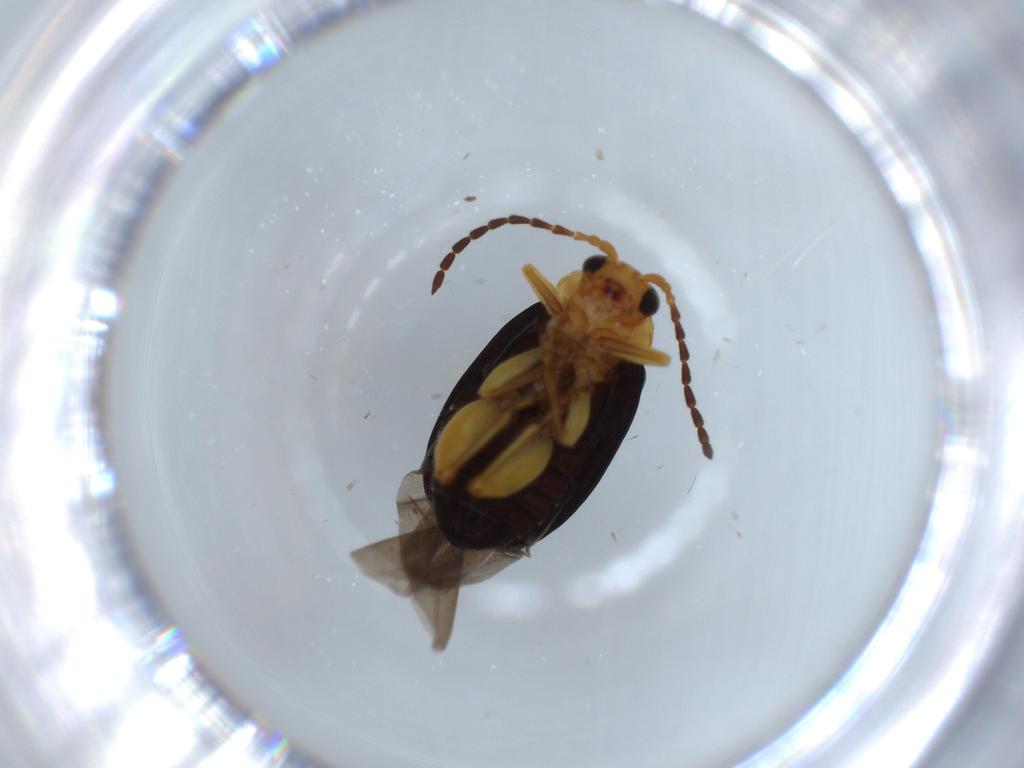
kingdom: Animalia
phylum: Arthropoda
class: Insecta
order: Coleoptera
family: Chrysomelidae
